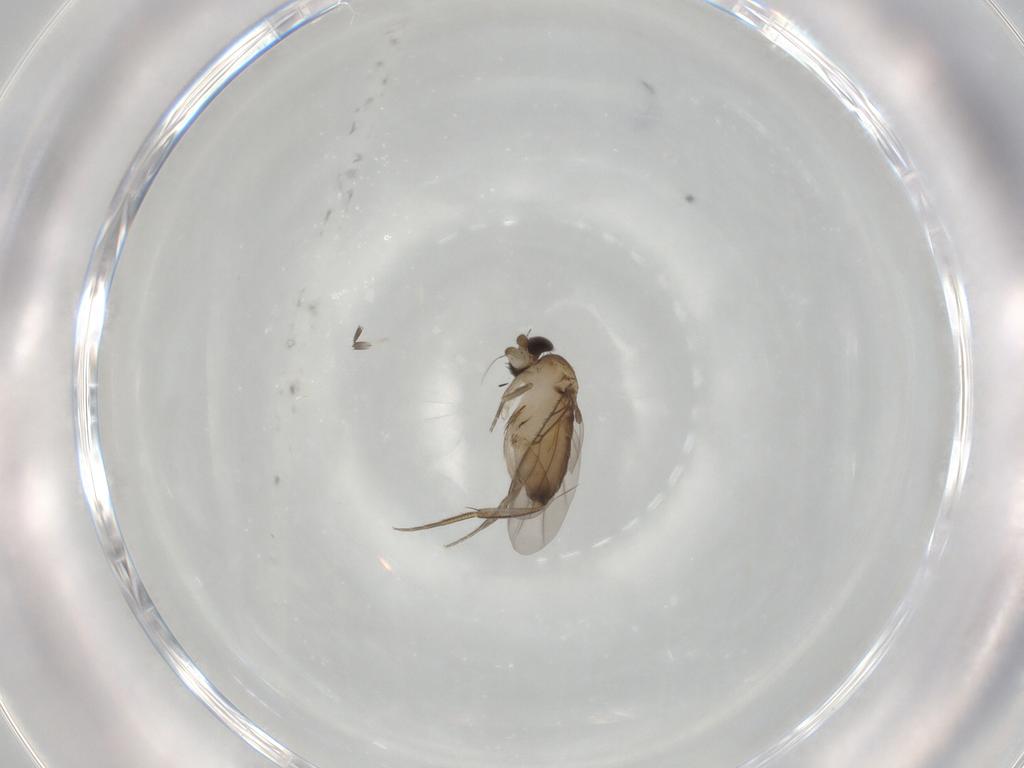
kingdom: Animalia
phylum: Arthropoda
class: Insecta
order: Diptera
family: Phoridae
